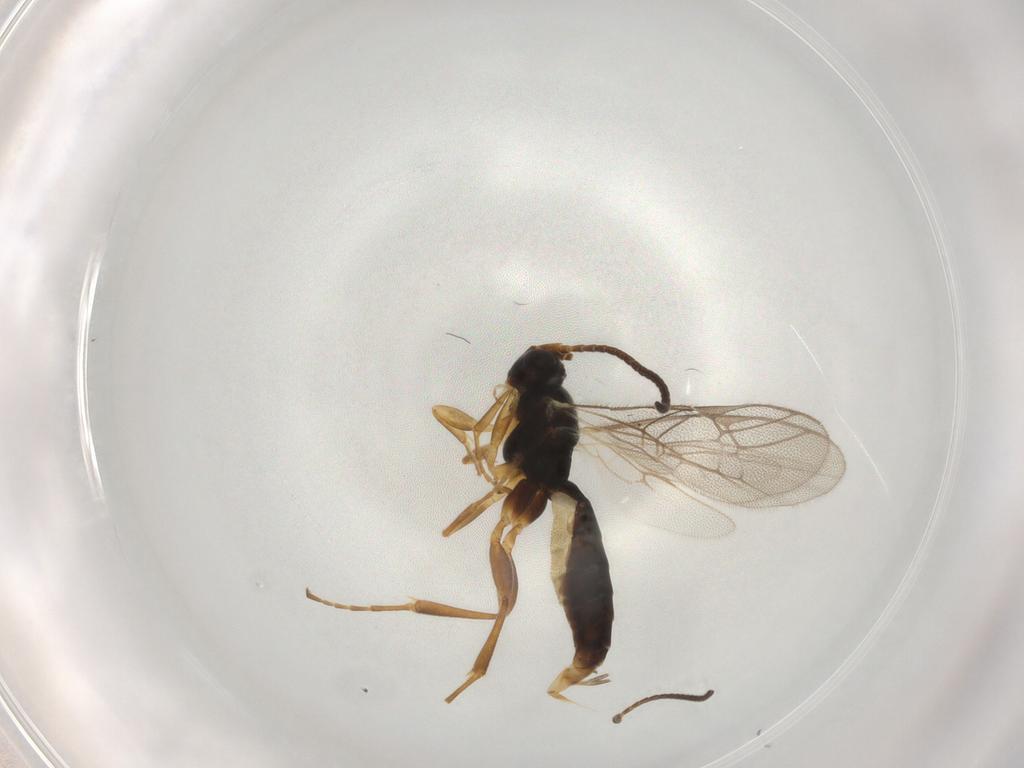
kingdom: Animalia
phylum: Arthropoda
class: Insecta
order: Hymenoptera
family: Ichneumonidae
